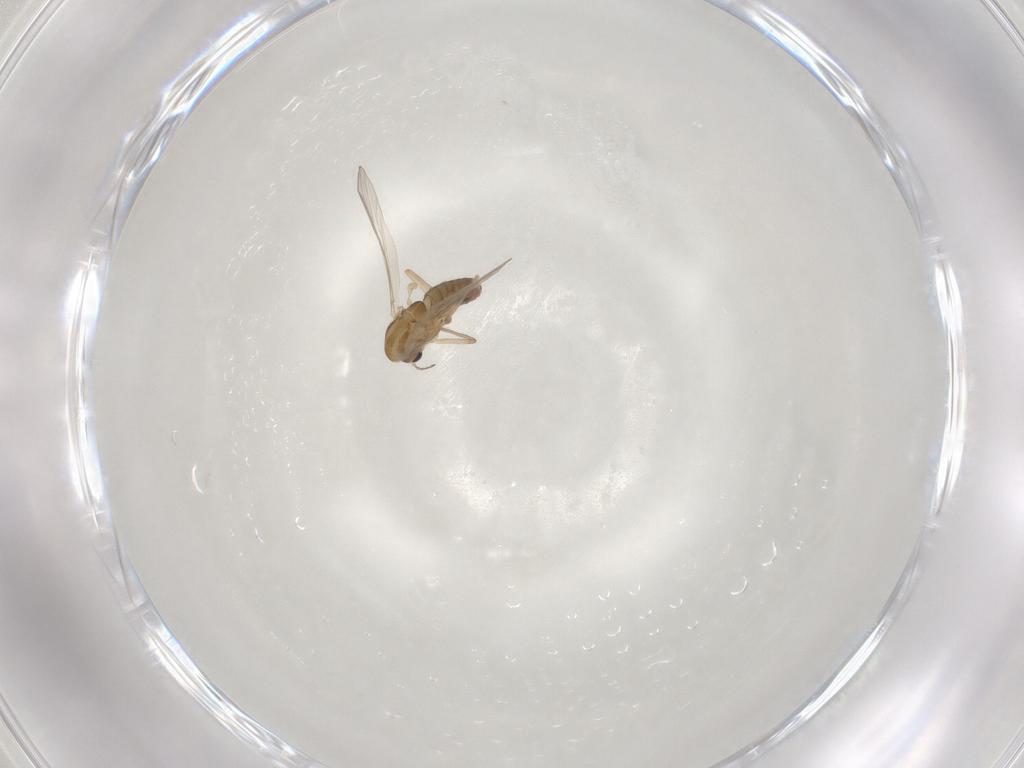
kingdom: Animalia
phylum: Arthropoda
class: Insecta
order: Diptera
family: Chironomidae
